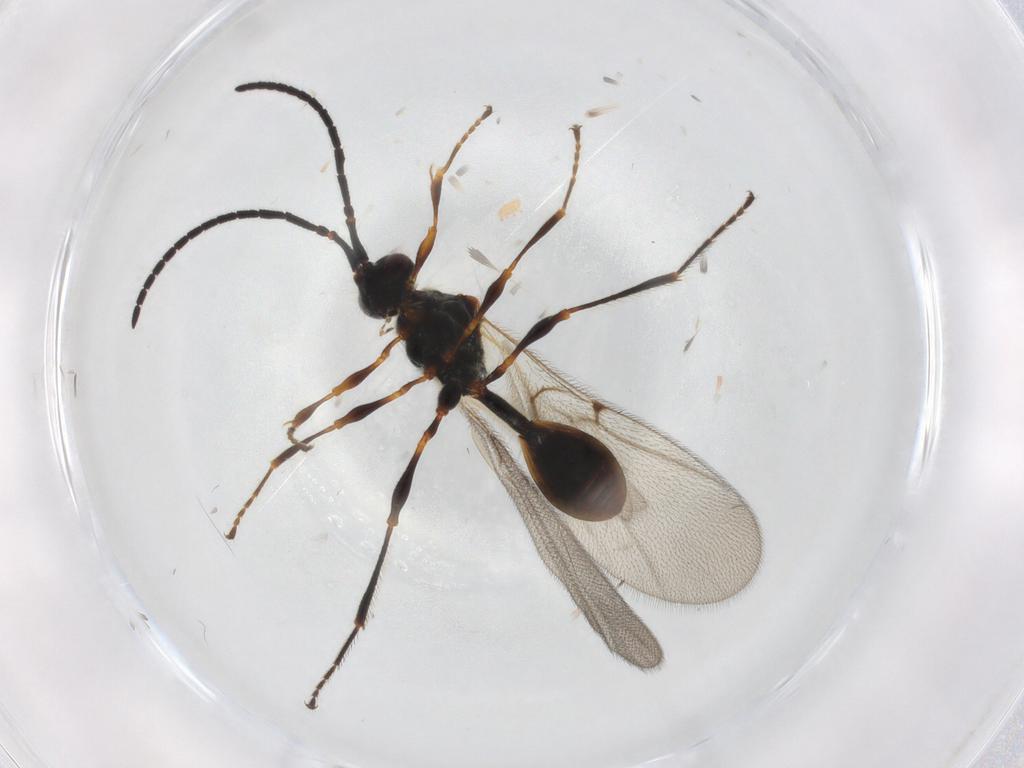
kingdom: Animalia
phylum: Arthropoda
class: Insecta
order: Hymenoptera
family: Diapriidae
